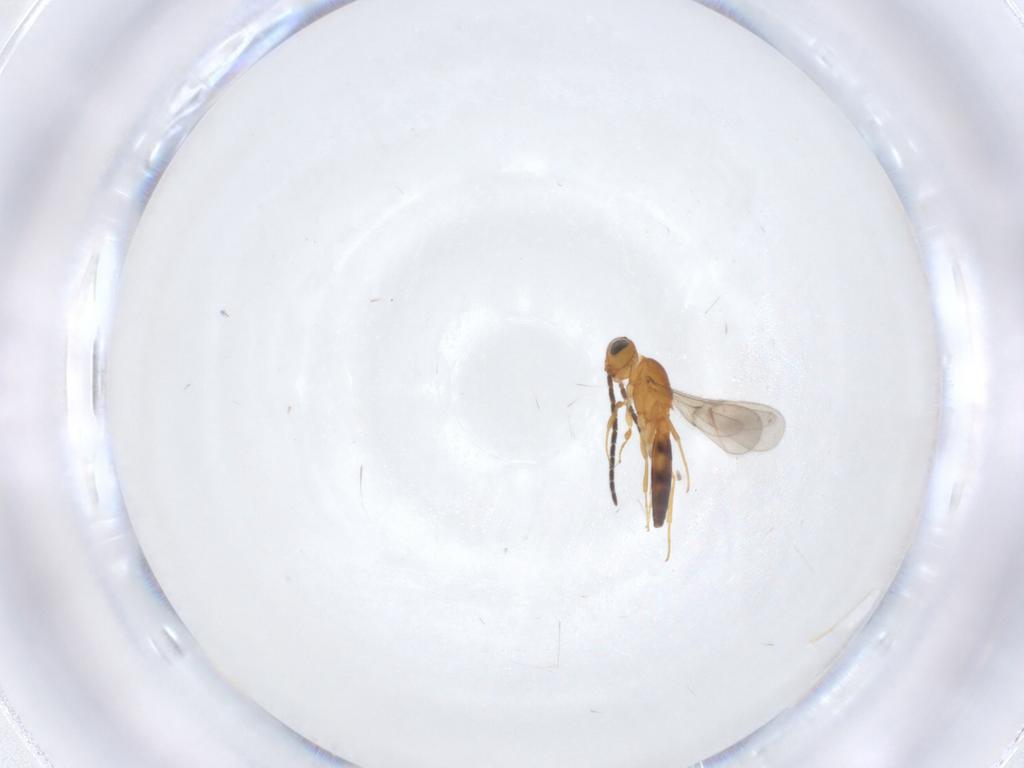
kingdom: Animalia
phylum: Arthropoda
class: Insecta
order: Hymenoptera
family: Scelionidae
